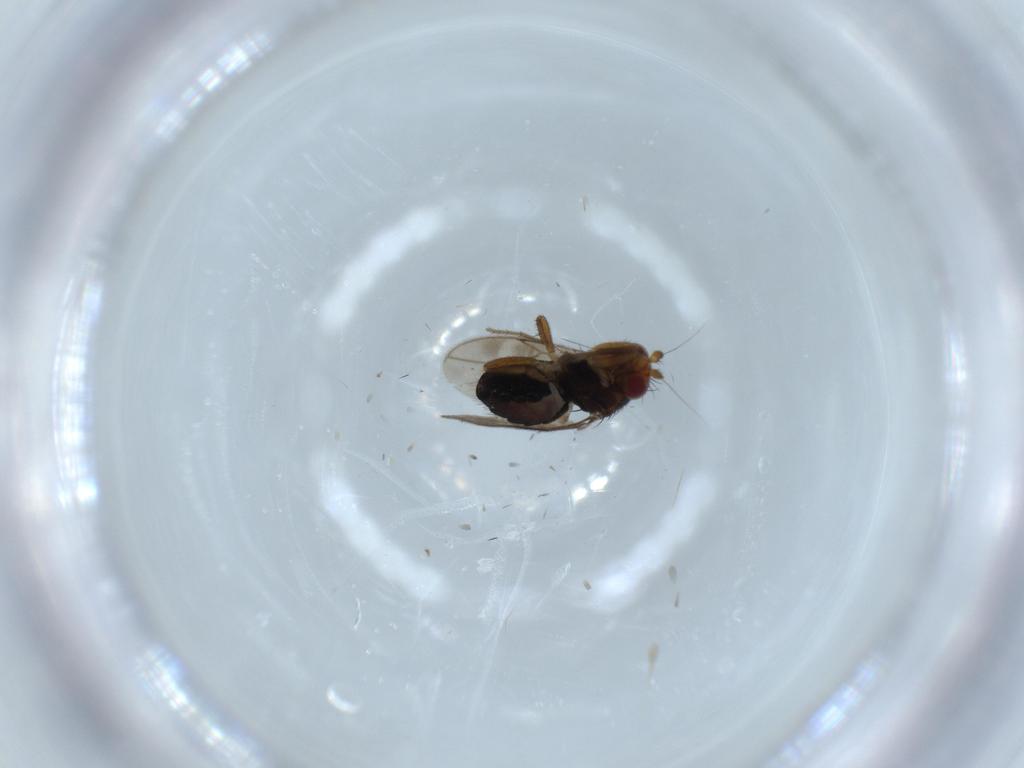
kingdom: Animalia
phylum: Arthropoda
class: Insecta
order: Diptera
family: Sphaeroceridae
